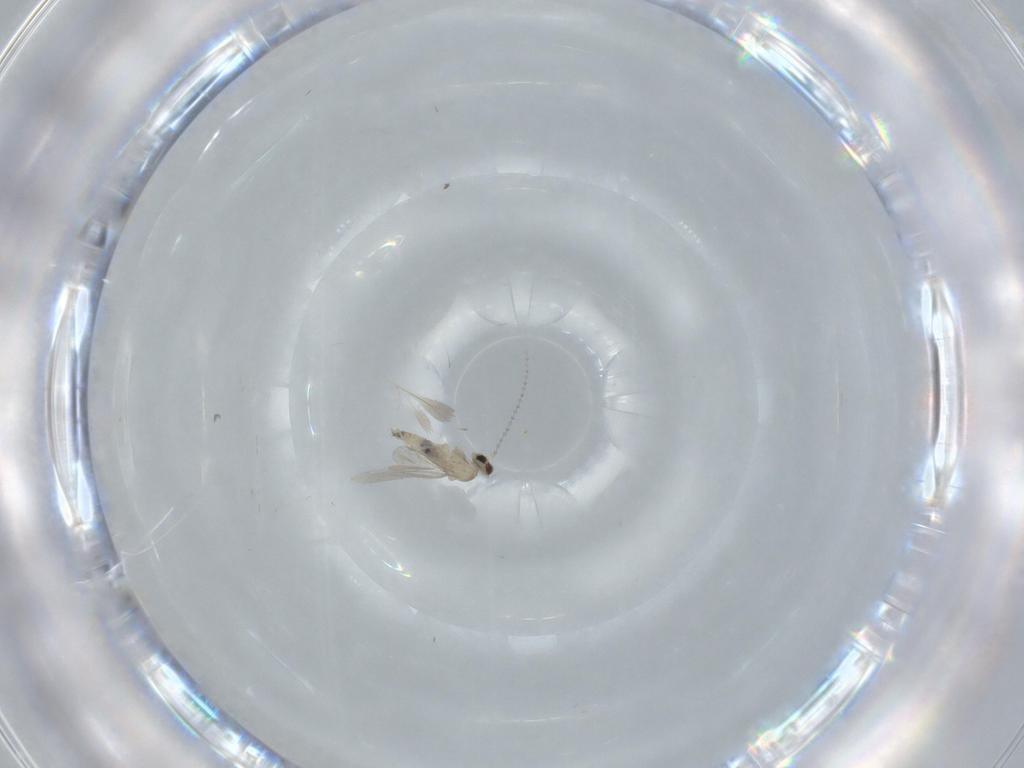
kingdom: Animalia
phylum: Arthropoda
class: Insecta
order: Diptera
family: Cecidomyiidae
